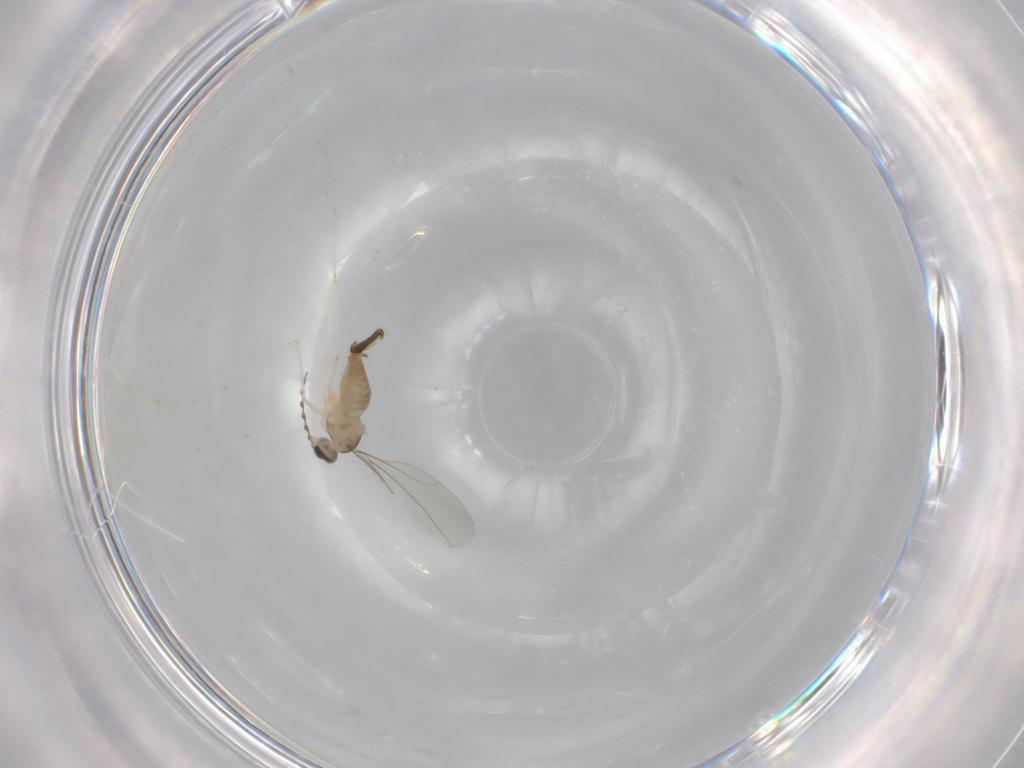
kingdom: Animalia
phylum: Arthropoda
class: Insecta
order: Diptera
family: Cecidomyiidae
